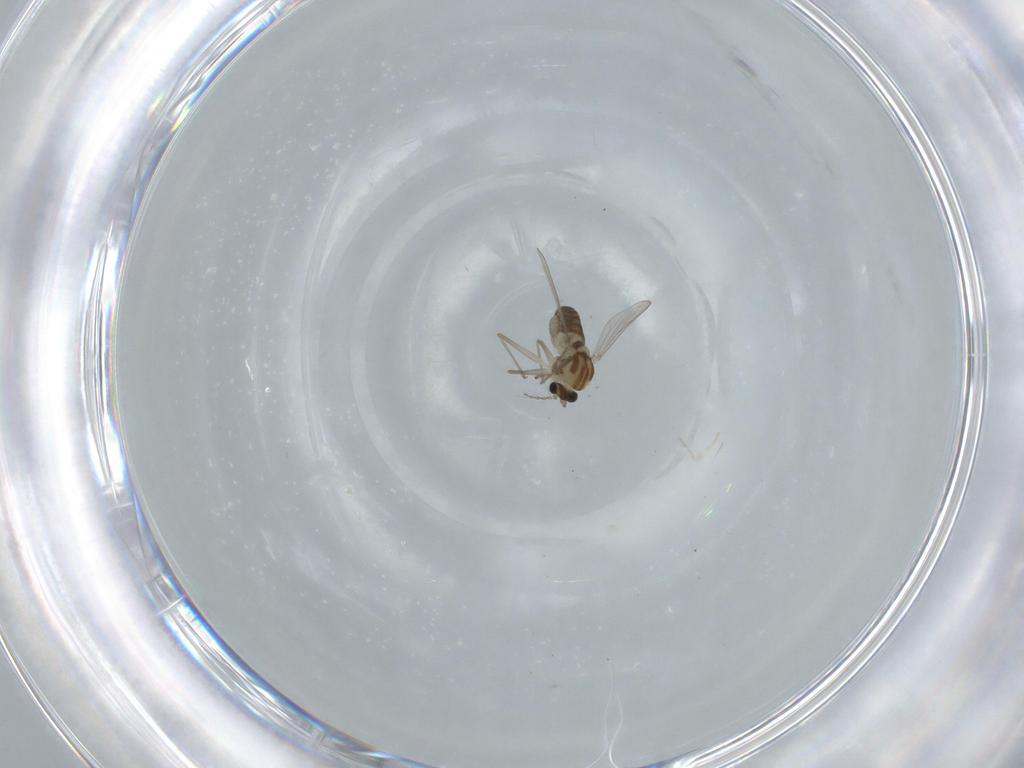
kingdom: Animalia
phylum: Arthropoda
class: Insecta
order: Diptera
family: Chironomidae
